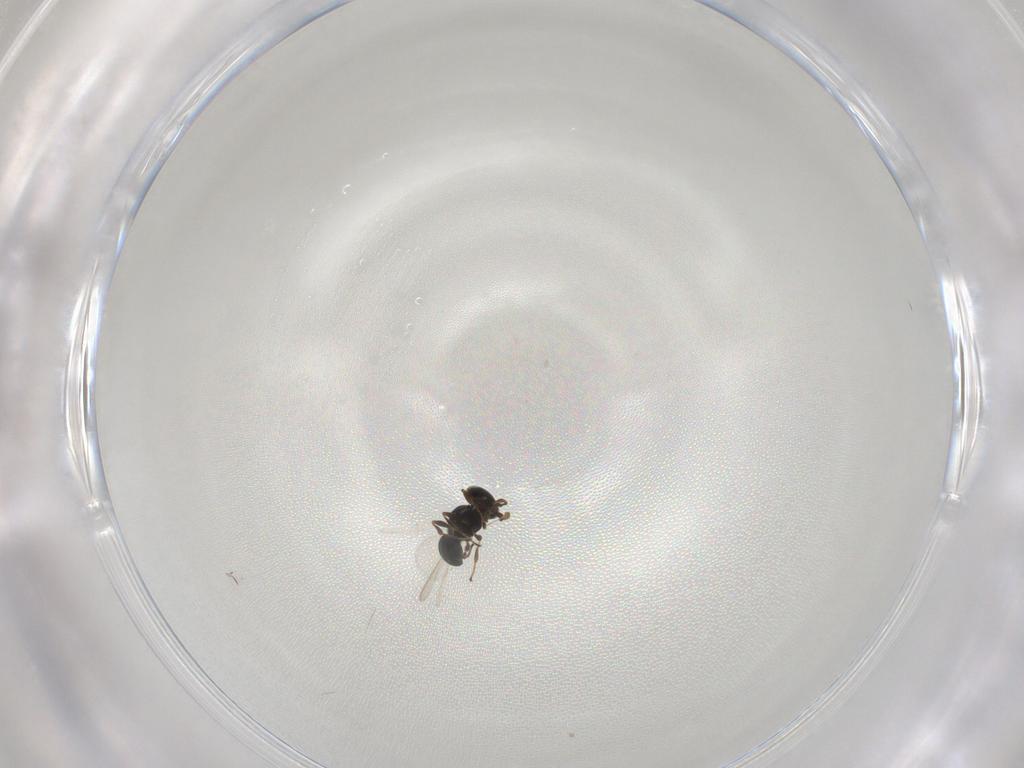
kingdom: Animalia
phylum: Arthropoda
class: Insecta
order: Hymenoptera
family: Platygastridae
